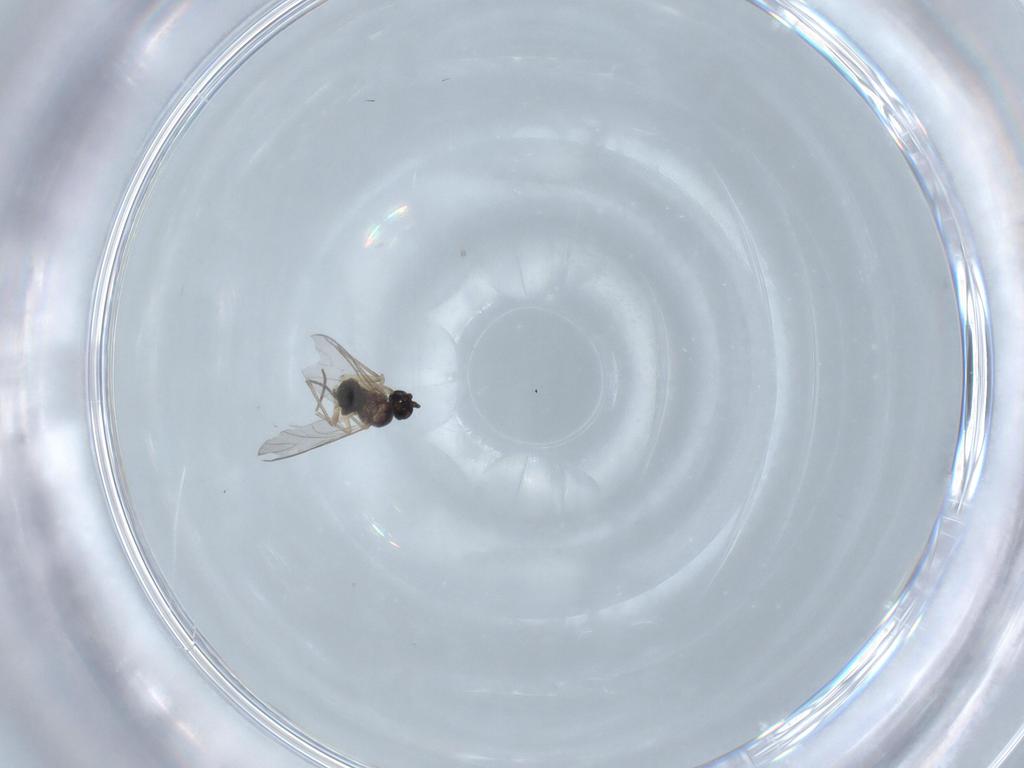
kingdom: Animalia
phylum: Arthropoda
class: Insecta
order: Diptera
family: Sciaridae
